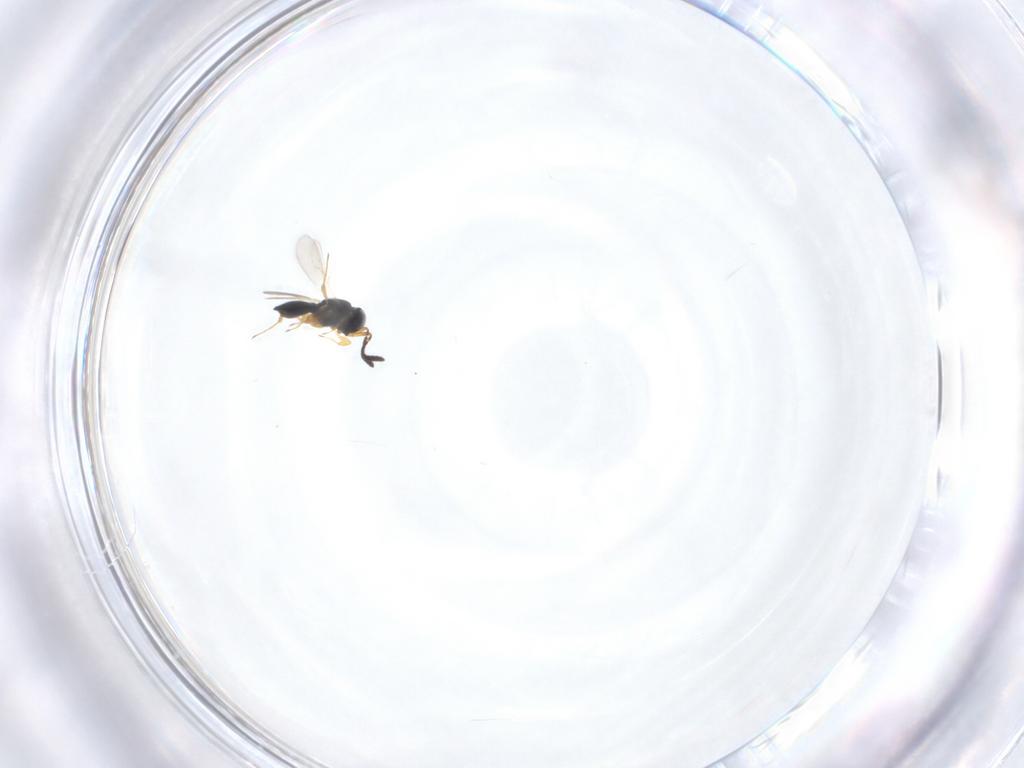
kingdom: Animalia
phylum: Arthropoda
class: Insecta
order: Hymenoptera
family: Scelionidae
